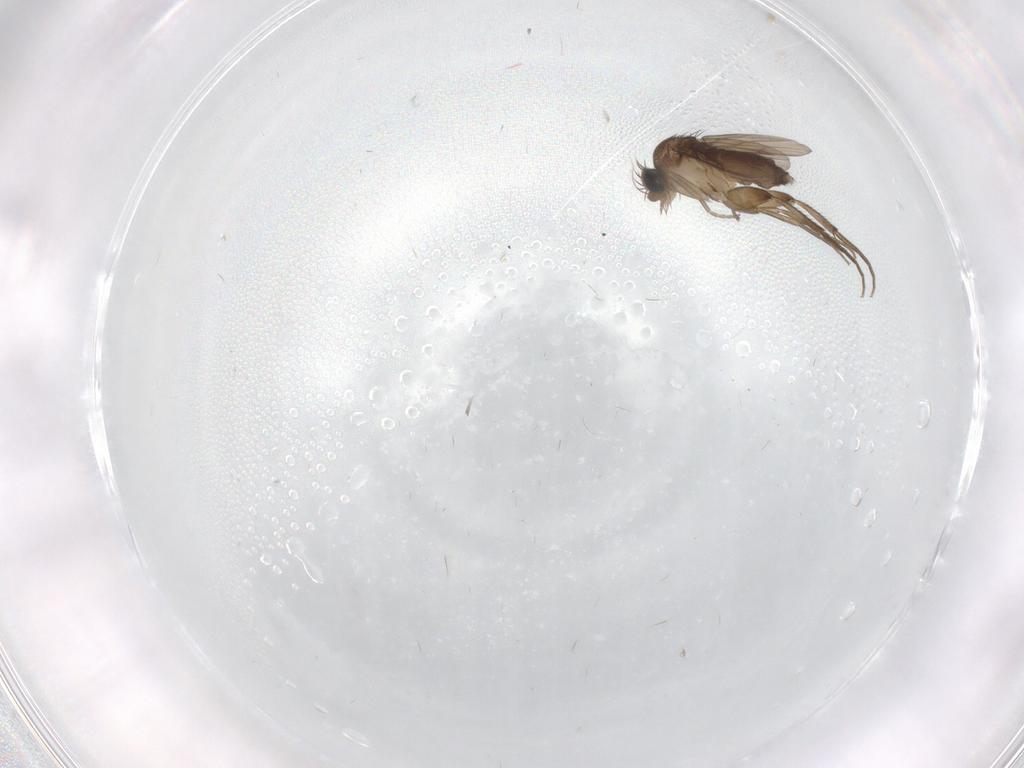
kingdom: Animalia
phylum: Arthropoda
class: Insecta
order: Diptera
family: Phoridae
